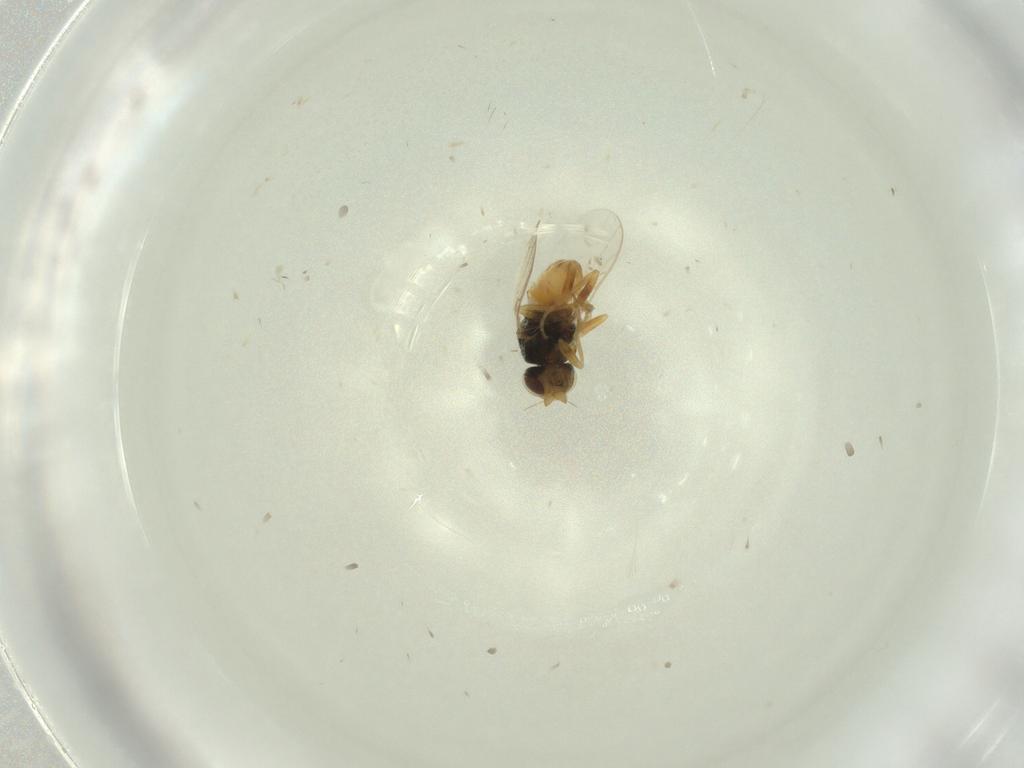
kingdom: Animalia
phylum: Arthropoda
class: Insecta
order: Diptera
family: Chloropidae
